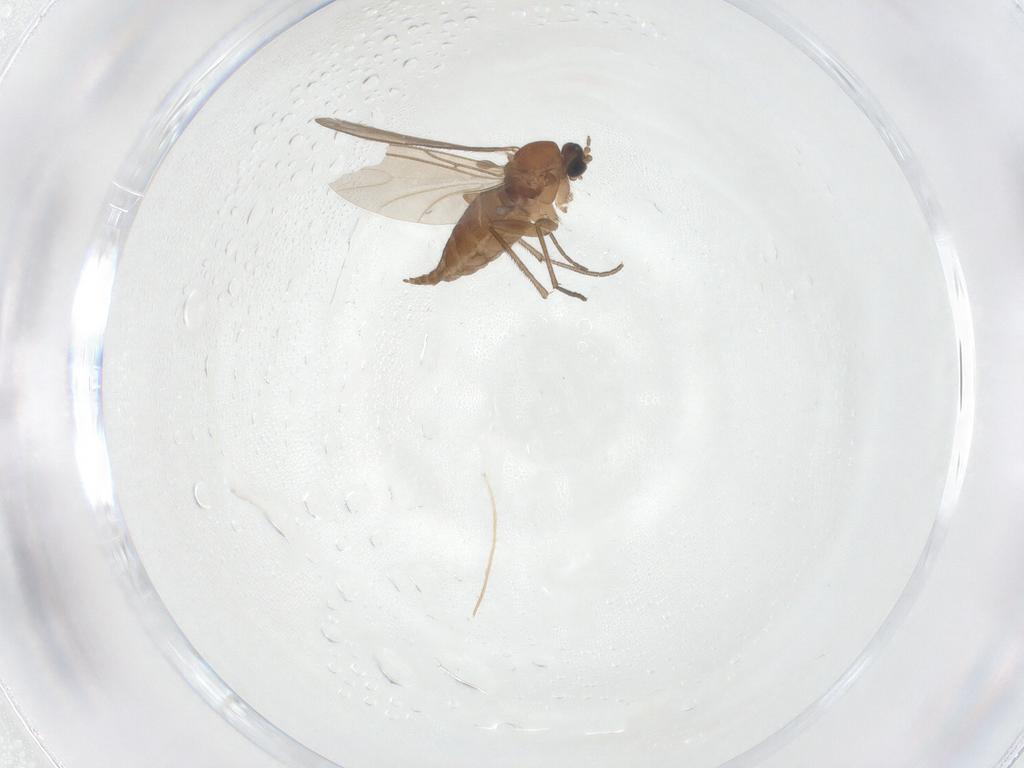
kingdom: Animalia
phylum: Arthropoda
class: Insecta
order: Diptera
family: Sciaridae
